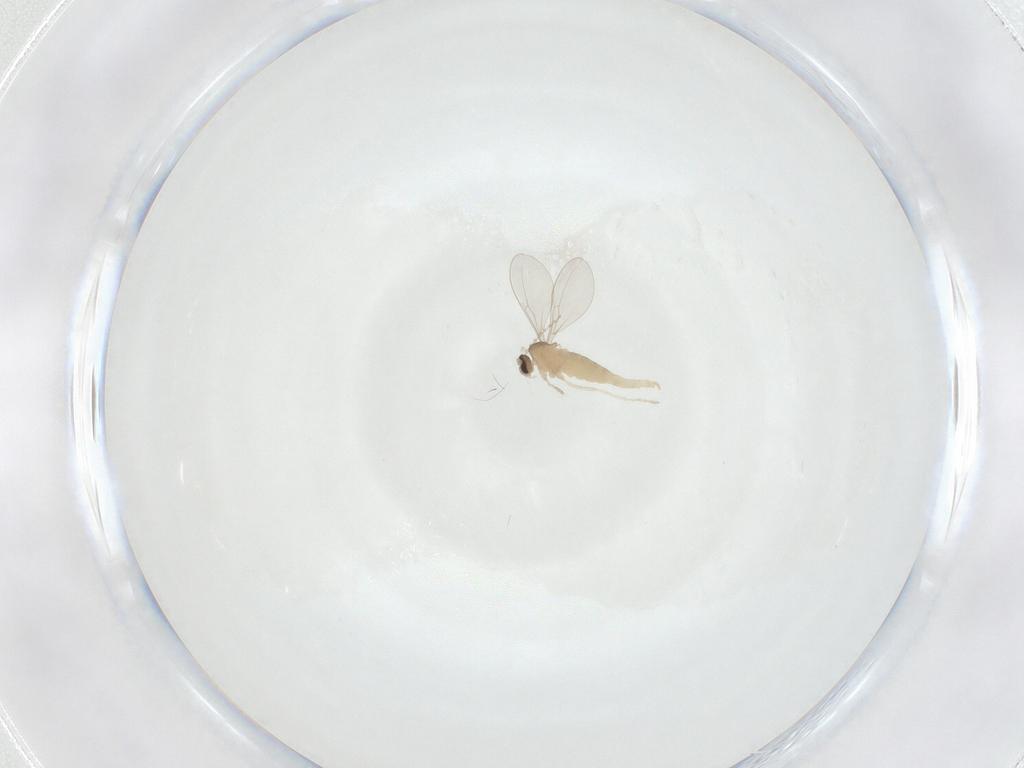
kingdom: Animalia
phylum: Arthropoda
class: Insecta
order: Diptera
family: Cecidomyiidae
